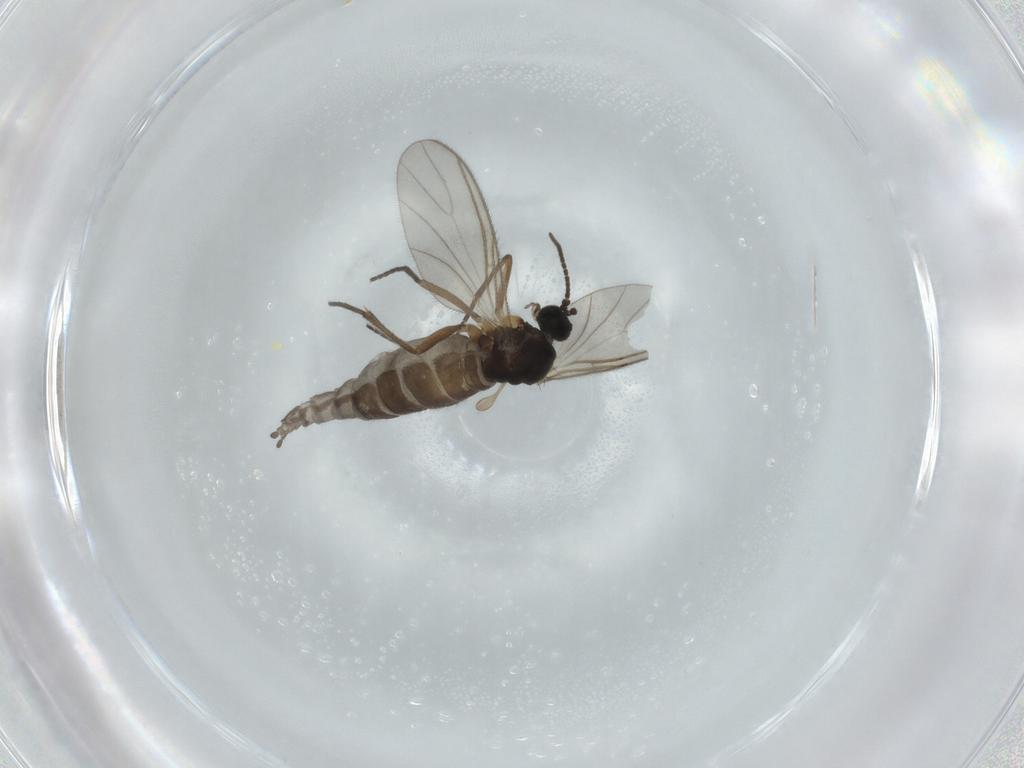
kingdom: Animalia
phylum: Arthropoda
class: Insecta
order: Diptera
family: Sciaridae
